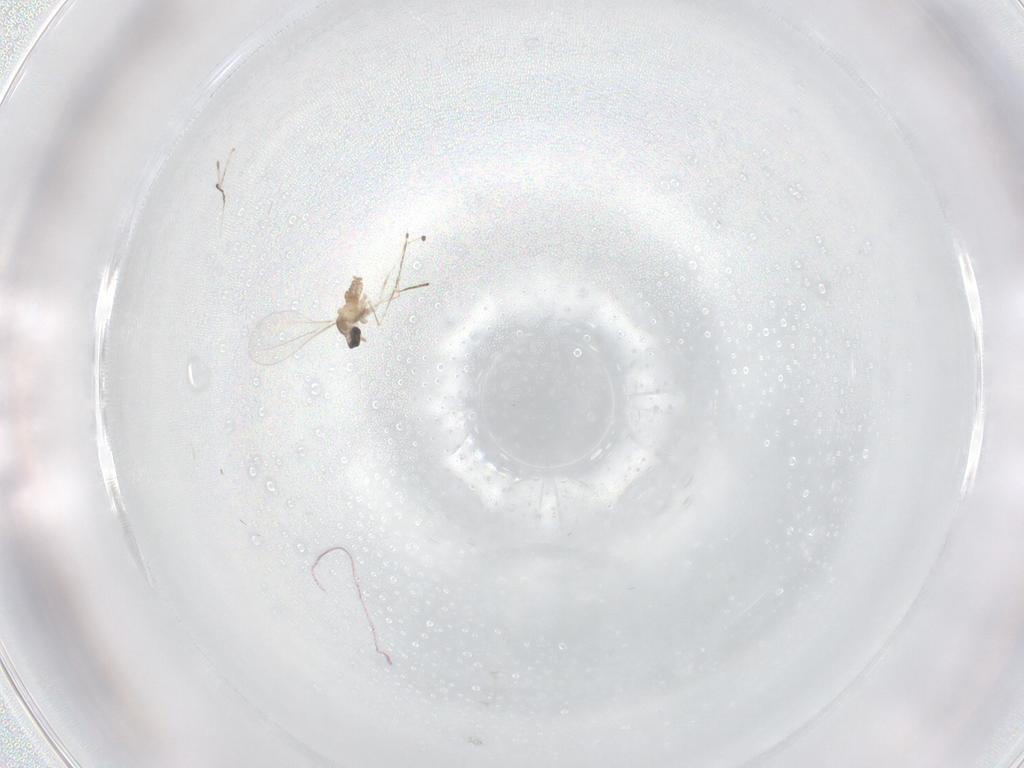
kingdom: Animalia
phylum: Arthropoda
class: Insecta
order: Diptera
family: Cecidomyiidae
